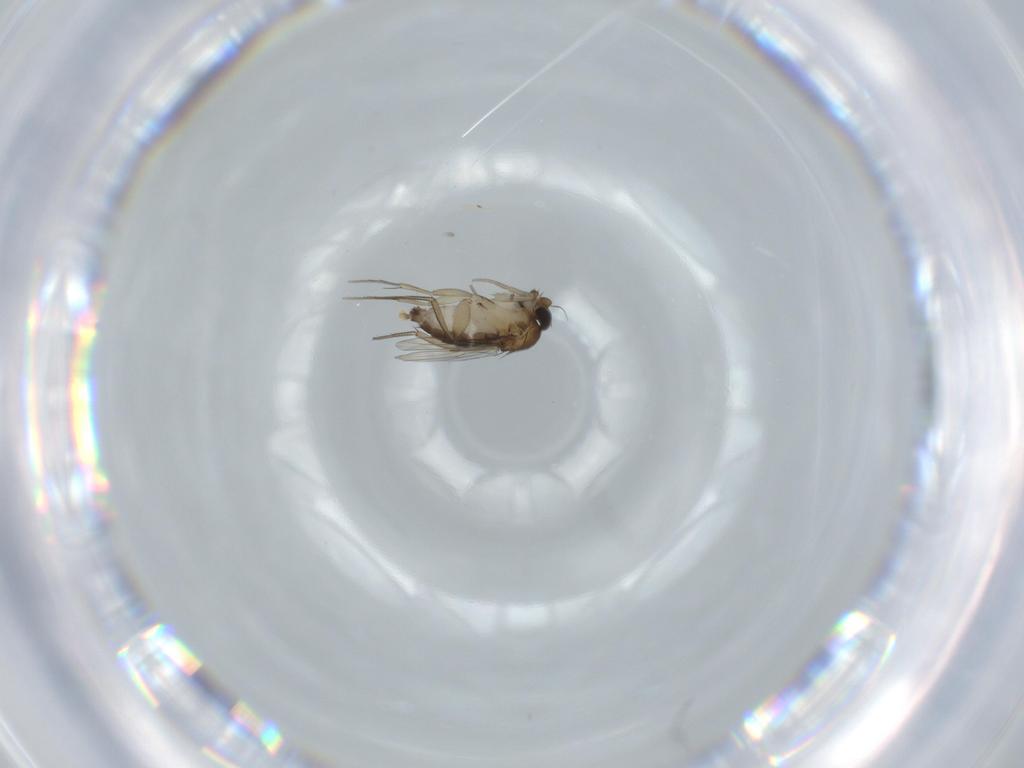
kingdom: Animalia
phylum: Arthropoda
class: Insecta
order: Diptera
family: Phoridae
